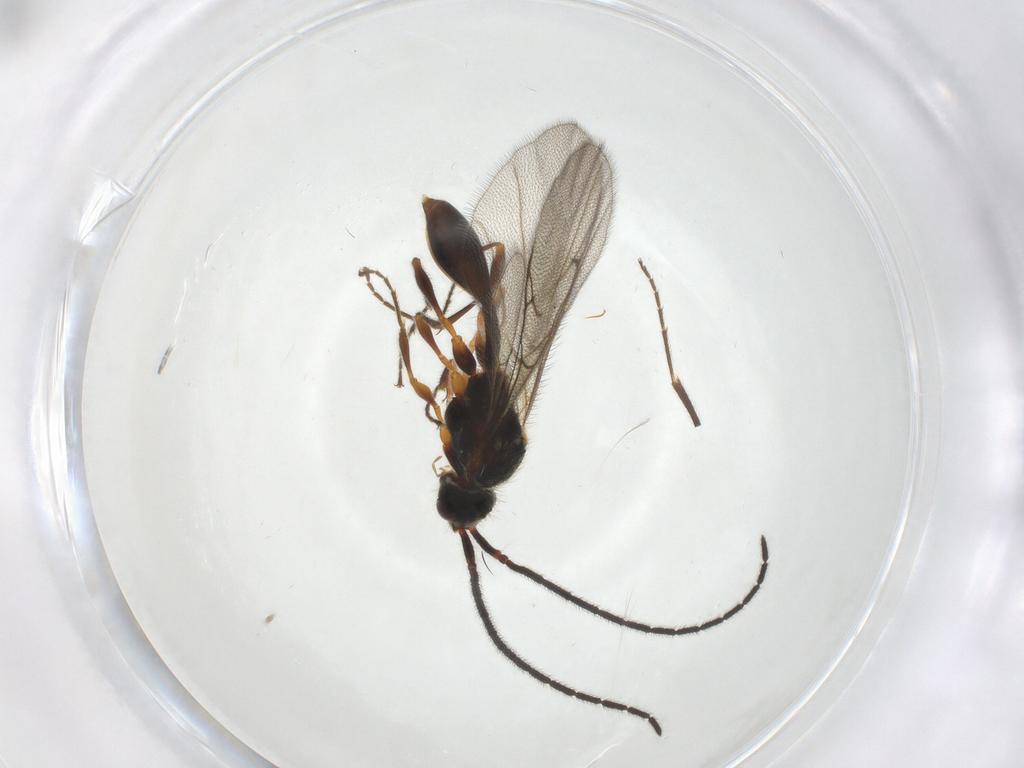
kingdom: Animalia
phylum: Arthropoda
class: Insecta
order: Hymenoptera
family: Diapriidae
